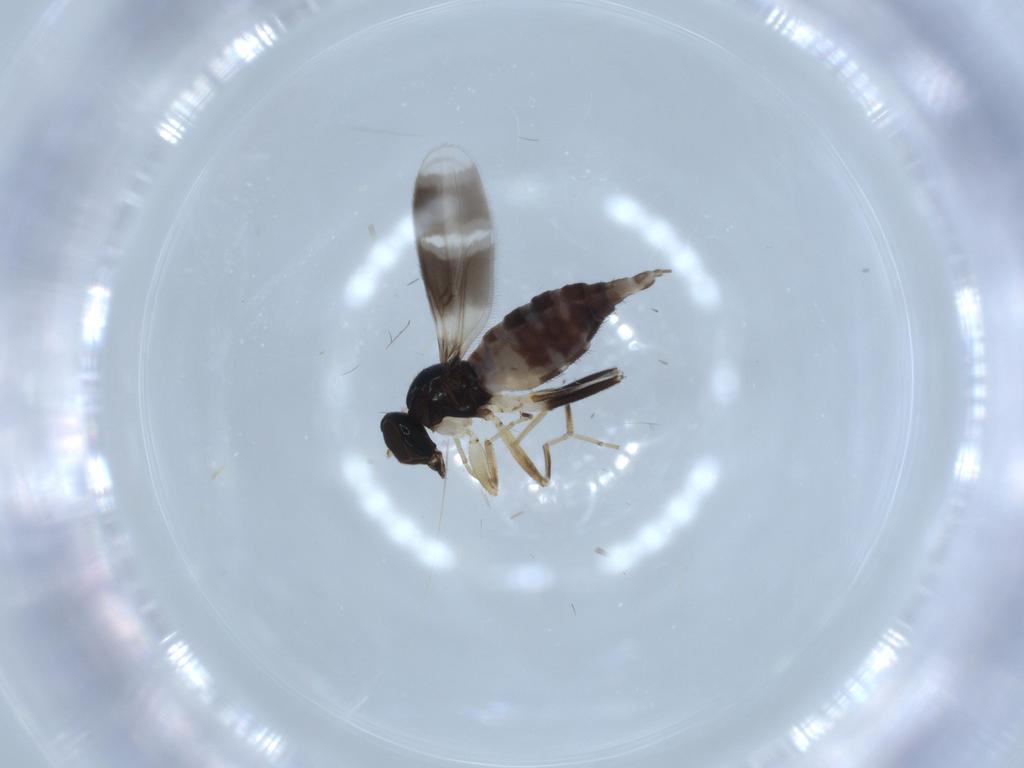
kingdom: Animalia
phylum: Arthropoda
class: Insecta
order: Diptera
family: Hybotidae
